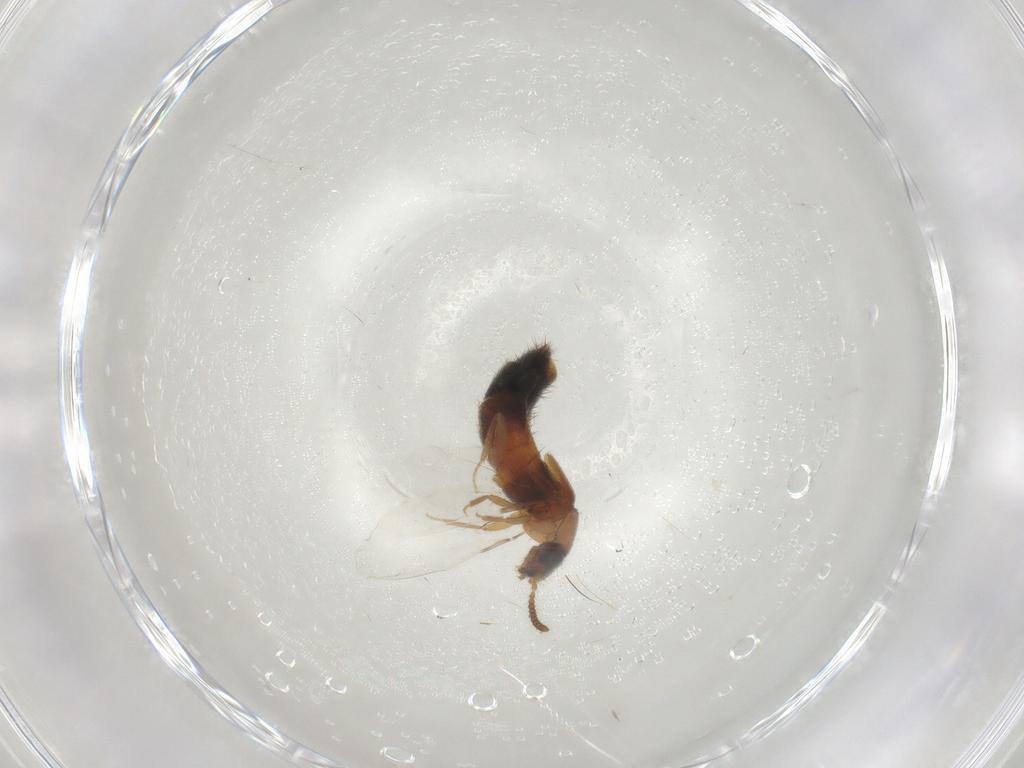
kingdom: Animalia
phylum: Arthropoda
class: Insecta
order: Coleoptera
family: Staphylinidae
